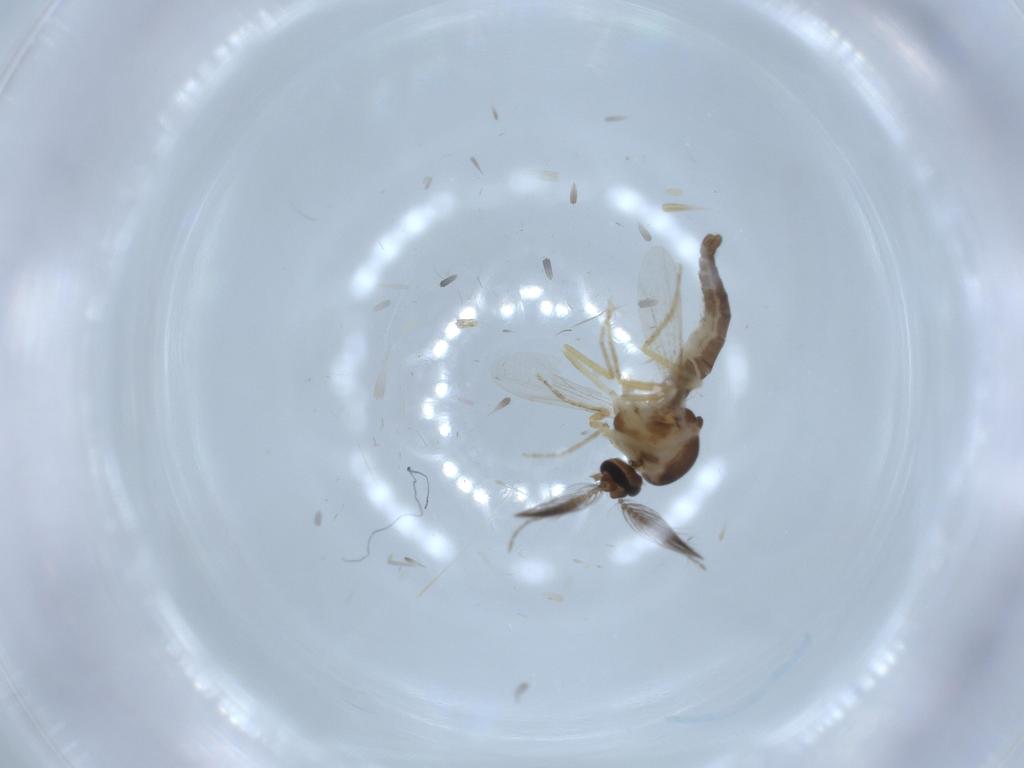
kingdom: Animalia
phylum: Arthropoda
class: Insecta
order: Diptera
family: Ceratopogonidae
